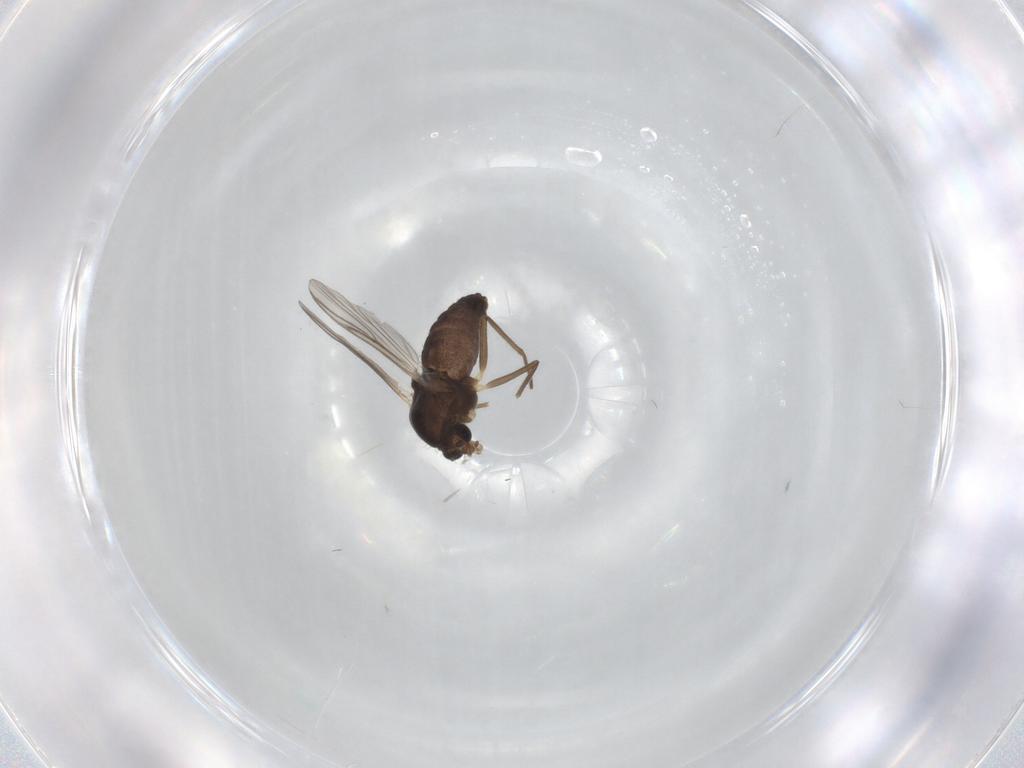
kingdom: Animalia
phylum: Arthropoda
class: Insecta
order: Diptera
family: Chironomidae
